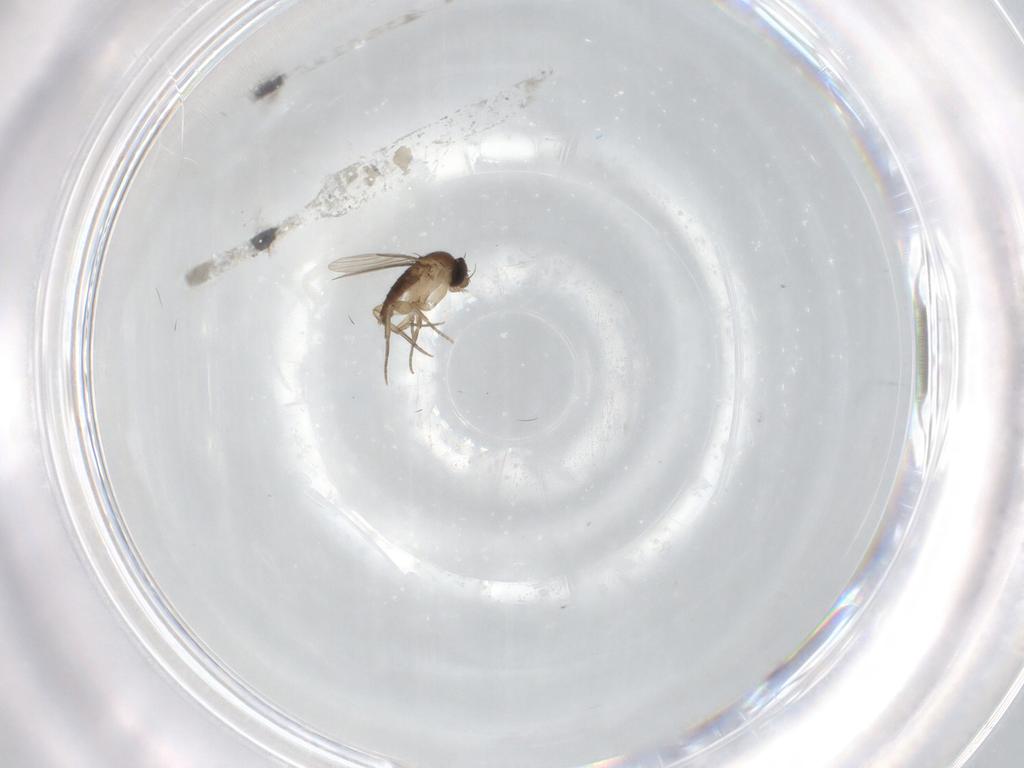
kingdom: Animalia
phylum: Arthropoda
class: Insecta
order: Diptera
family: Phoridae
